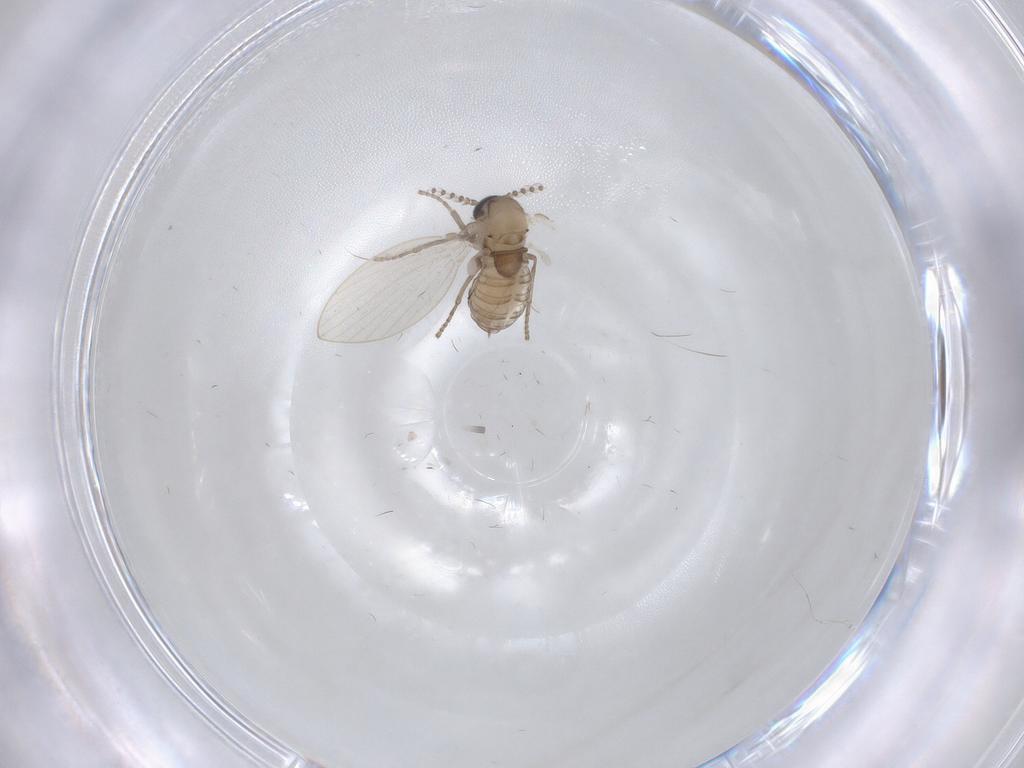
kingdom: Animalia
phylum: Arthropoda
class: Insecta
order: Diptera
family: Psychodidae
